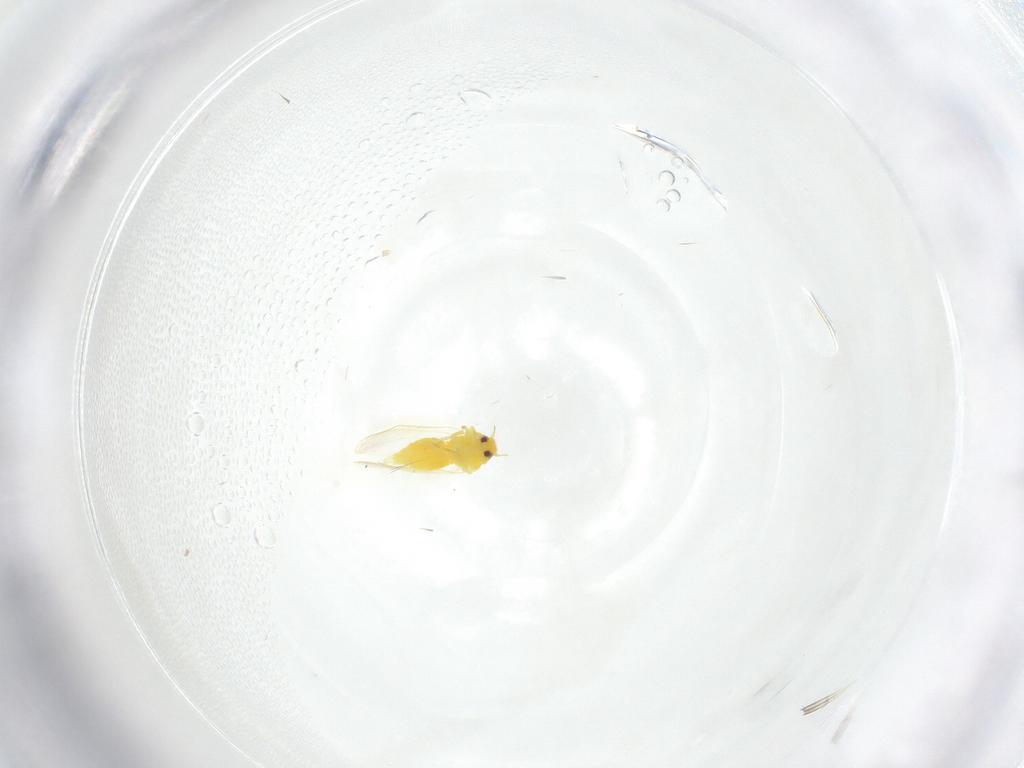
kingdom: Animalia
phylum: Arthropoda
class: Insecta
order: Hemiptera
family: Aleyrodidae
